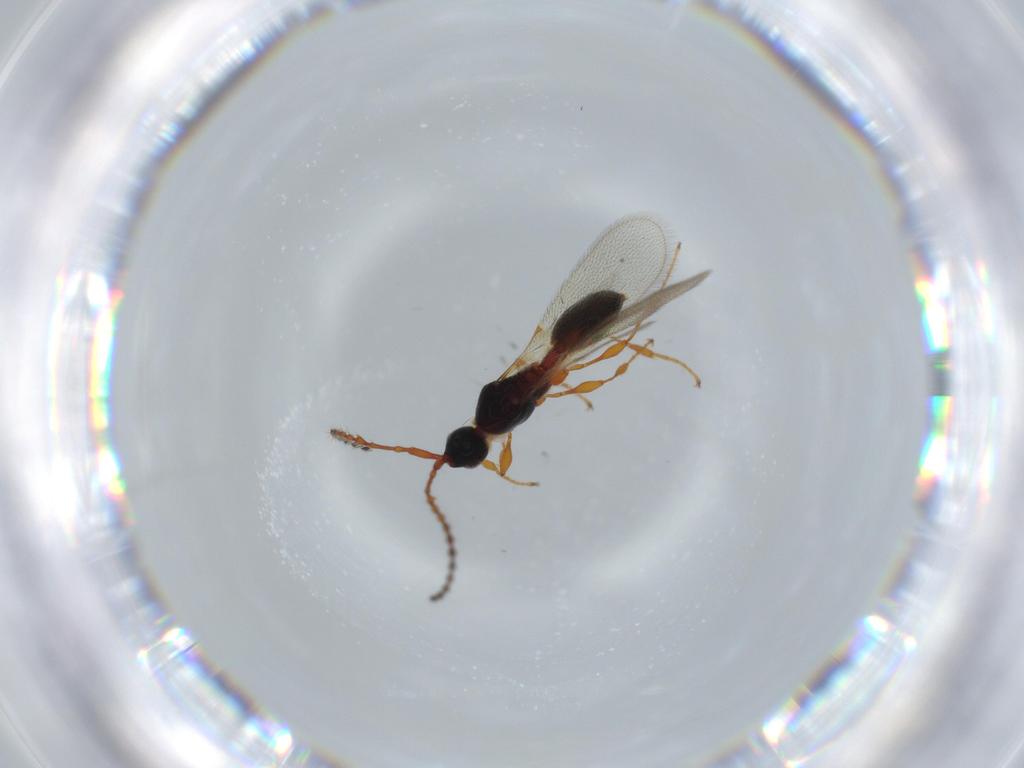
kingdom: Animalia
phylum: Arthropoda
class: Insecta
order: Hymenoptera
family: Diapriidae
